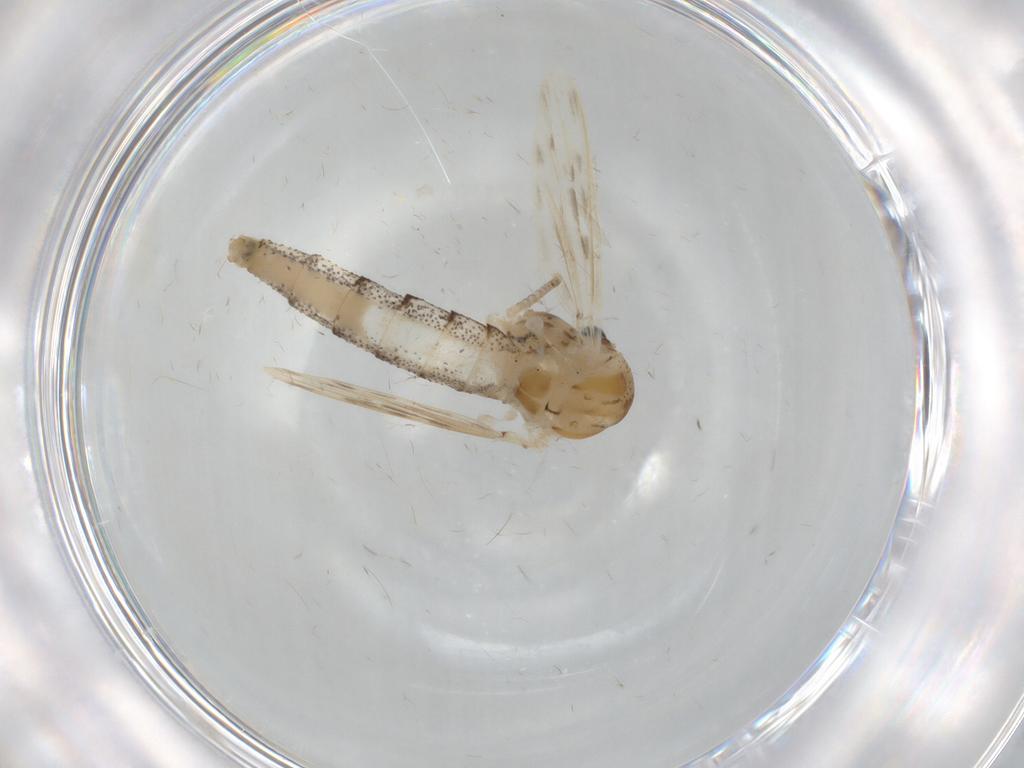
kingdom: Animalia
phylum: Arthropoda
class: Insecta
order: Diptera
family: Chaoboridae
